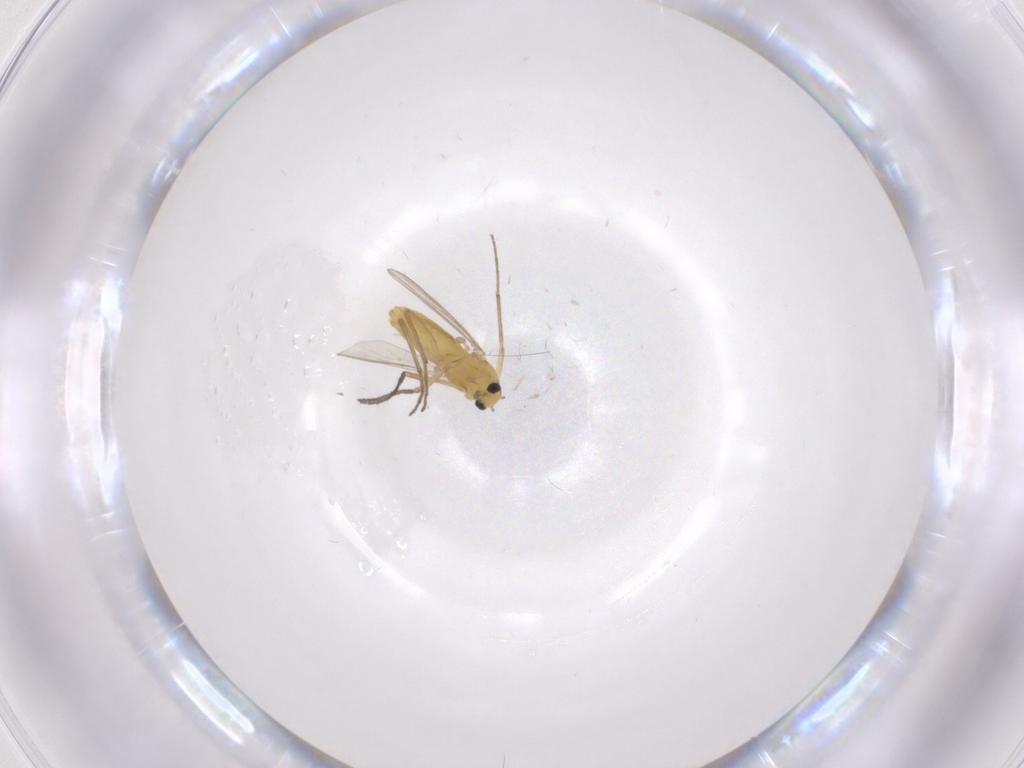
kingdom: Animalia
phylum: Arthropoda
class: Insecta
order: Diptera
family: Chironomidae
